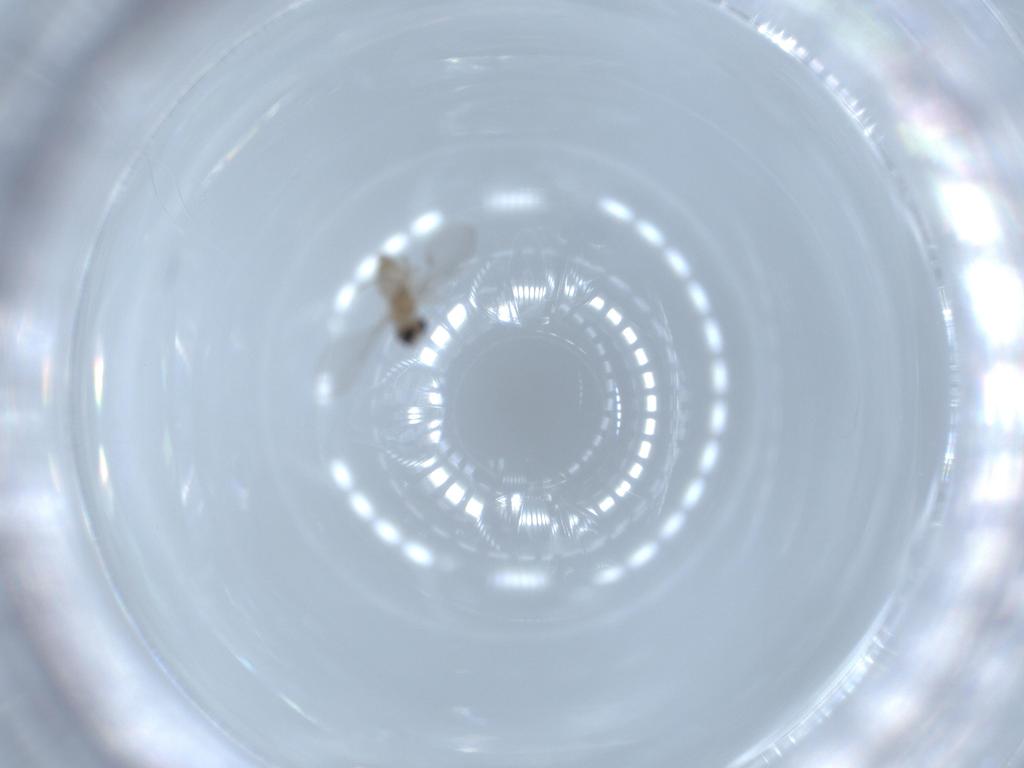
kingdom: Animalia
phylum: Arthropoda
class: Insecta
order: Diptera
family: Cecidomyiidae
